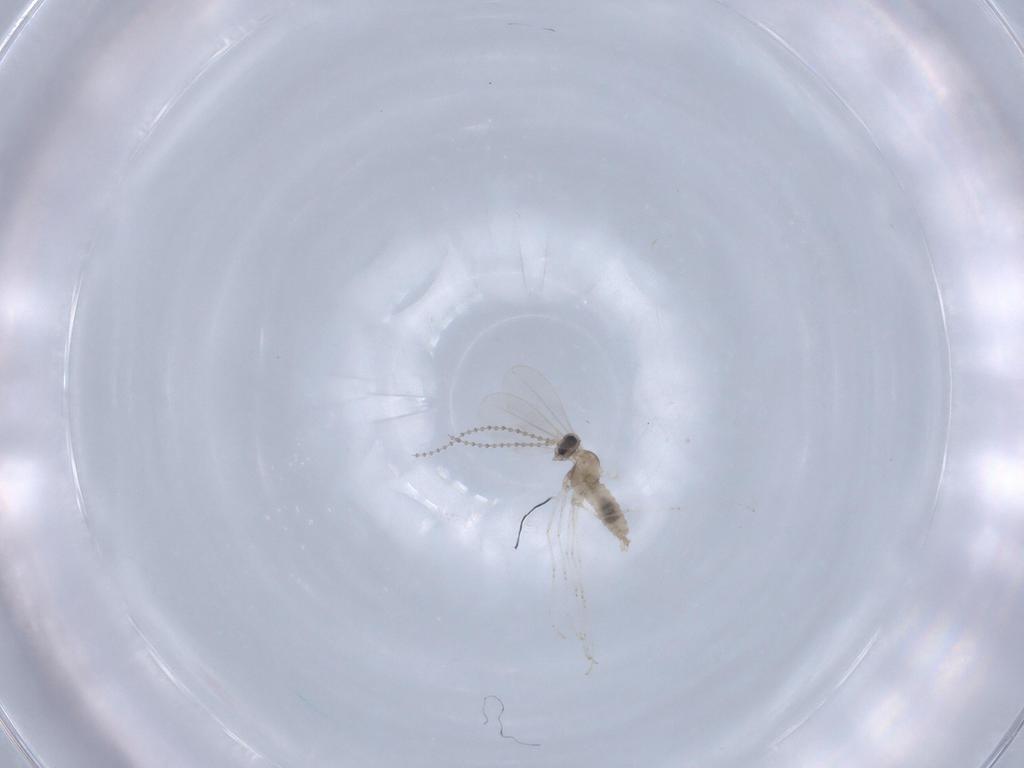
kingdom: Animalia
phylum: Arthropoda
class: Insecta
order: Diptera
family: Cecidomyiidae
